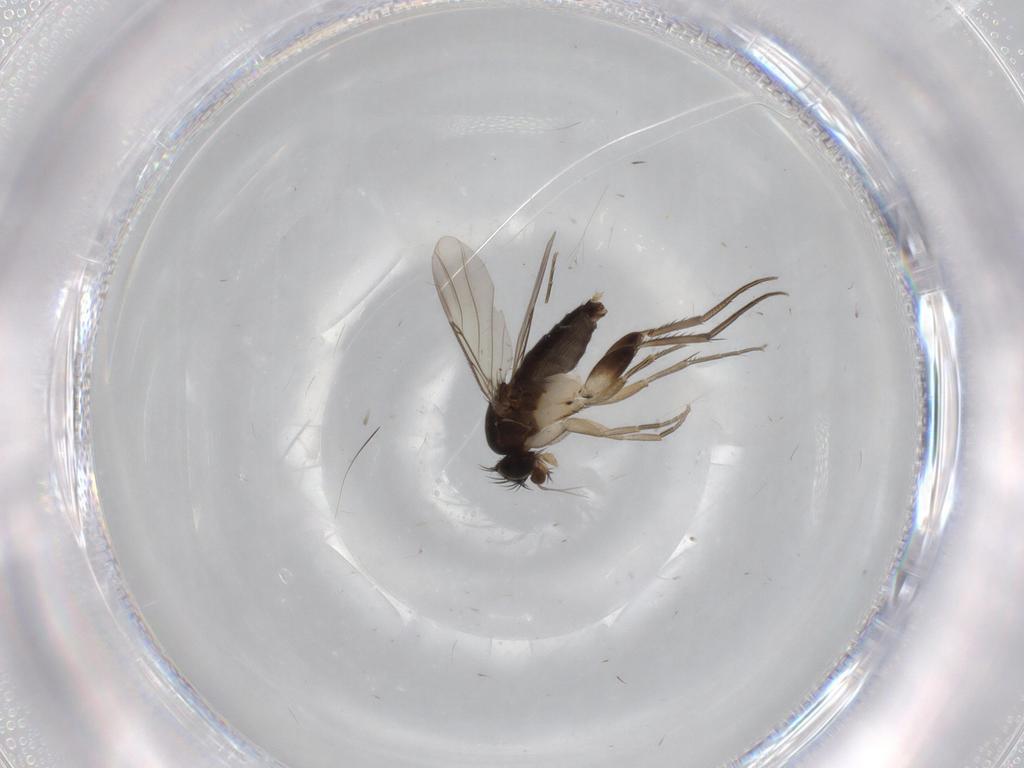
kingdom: Animalia
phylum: Arthropoda
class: Insecta
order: Diptera
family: Phoridae
